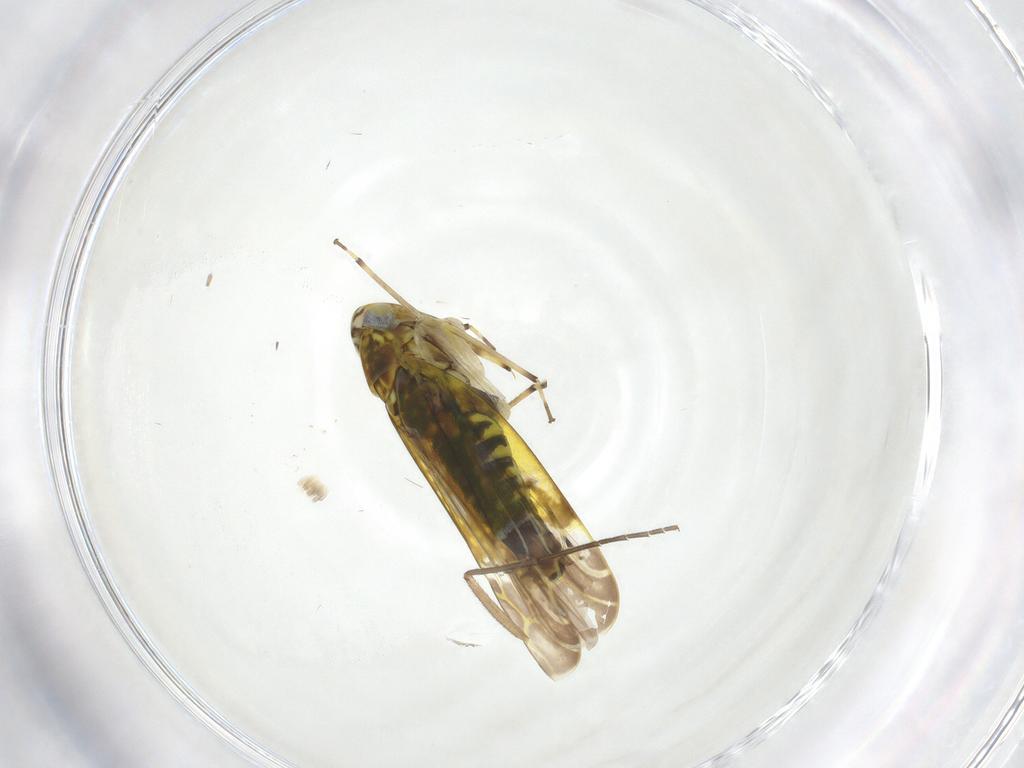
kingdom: Animalia
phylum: Arthropoda
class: Insecta
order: Hemiptera
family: Cicadellidae
